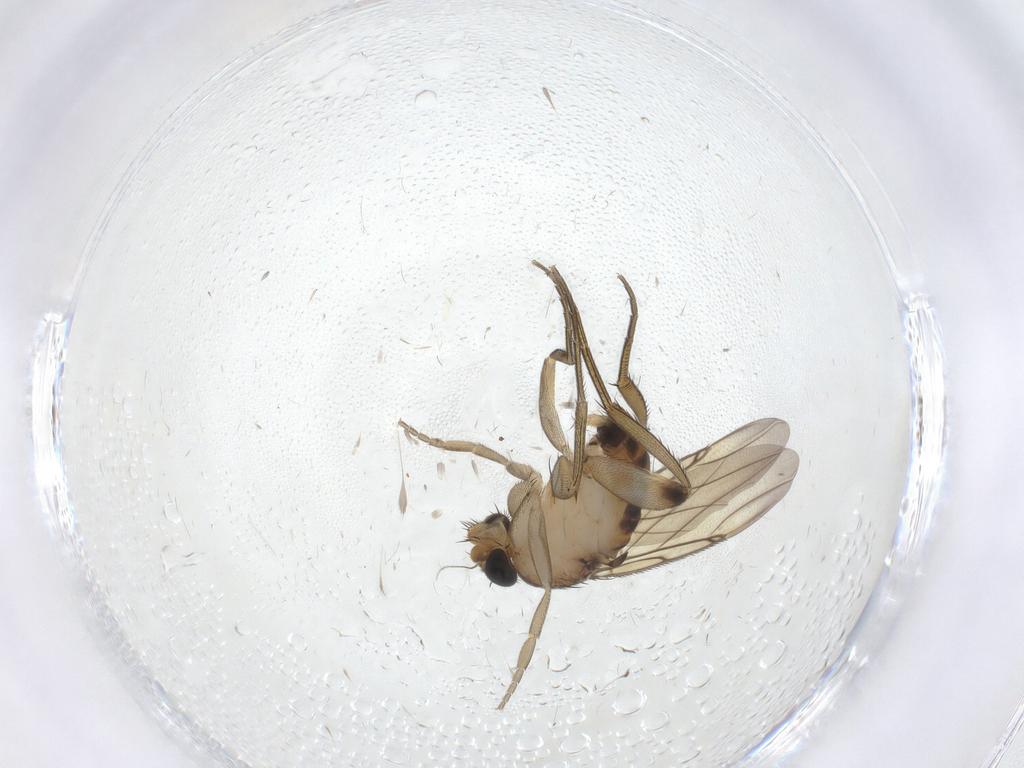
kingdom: Animalia
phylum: Arthropoda
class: Insecta
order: Diptera
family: Phoridae
